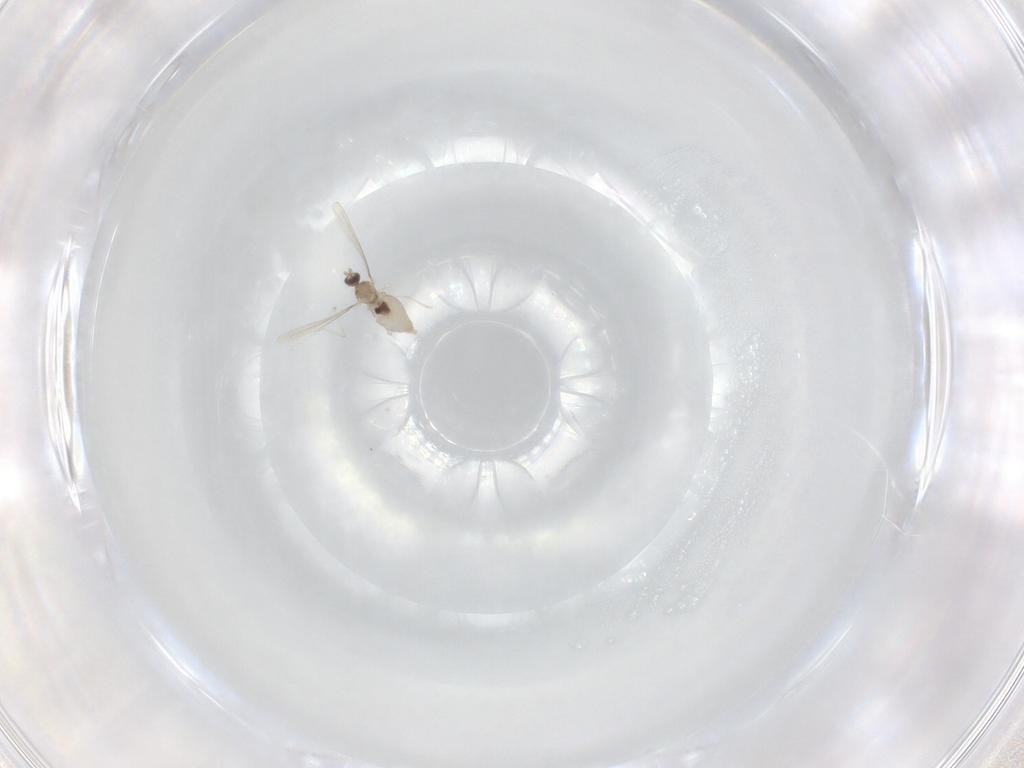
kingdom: Animalia
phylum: Arthropoda
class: Insecta
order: Diptera
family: Cecidomyiidae
